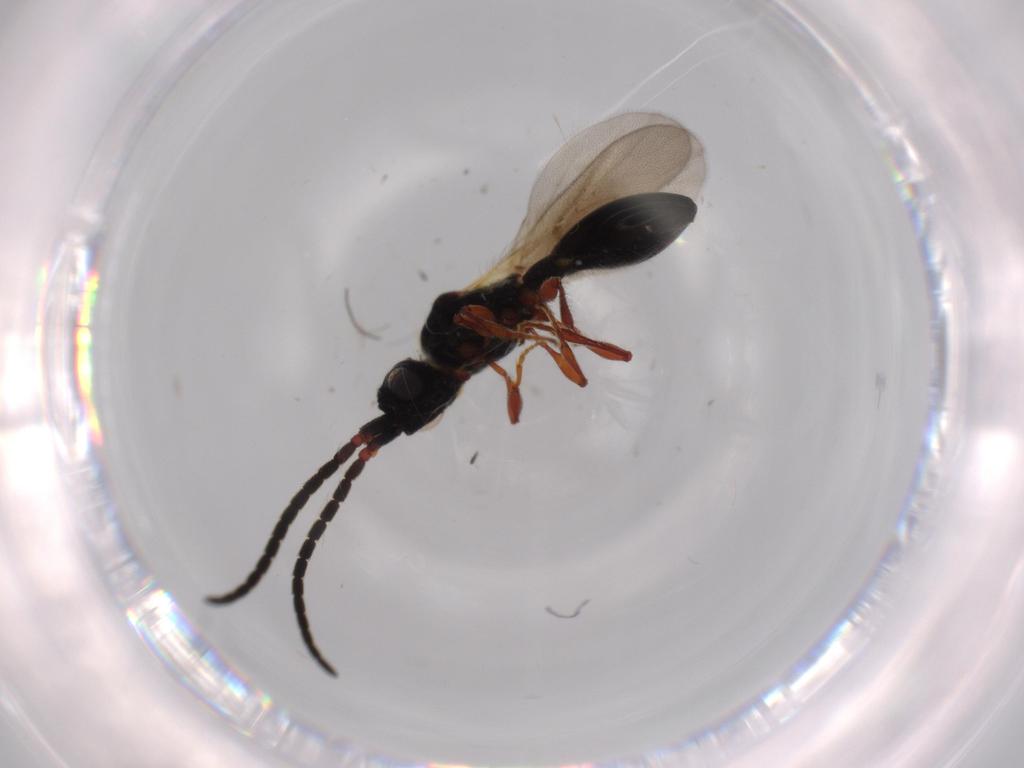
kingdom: Animalia
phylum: Arthropoda
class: Insecta
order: Hymenoptera
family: Diapriidae
